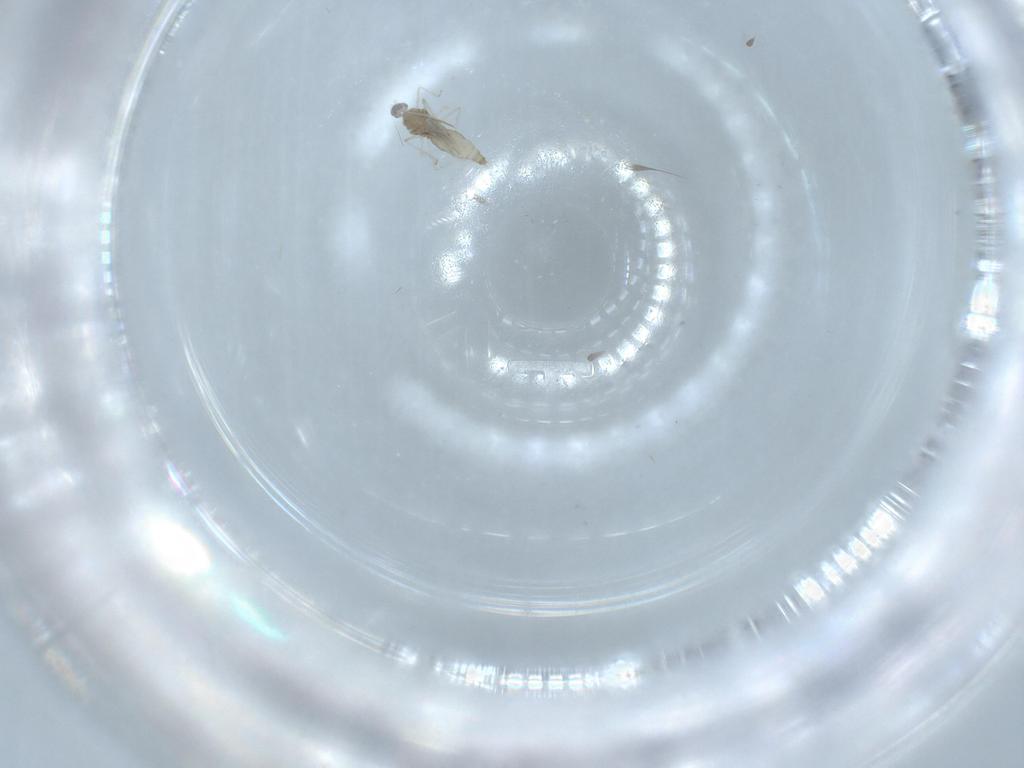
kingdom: Animalia
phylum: Arthropoda
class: Insecta
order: Diptera
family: Cecidomyiidae
